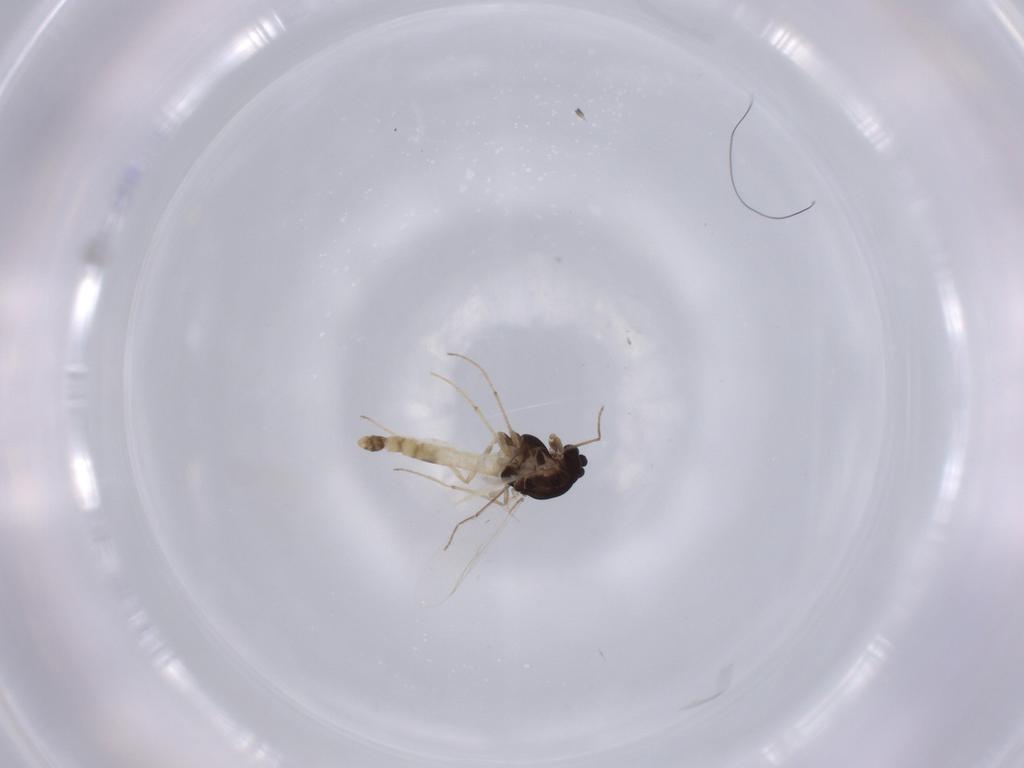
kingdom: Animalia
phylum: Arthropoda
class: Insecta
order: Diptera
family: Chironomidae
